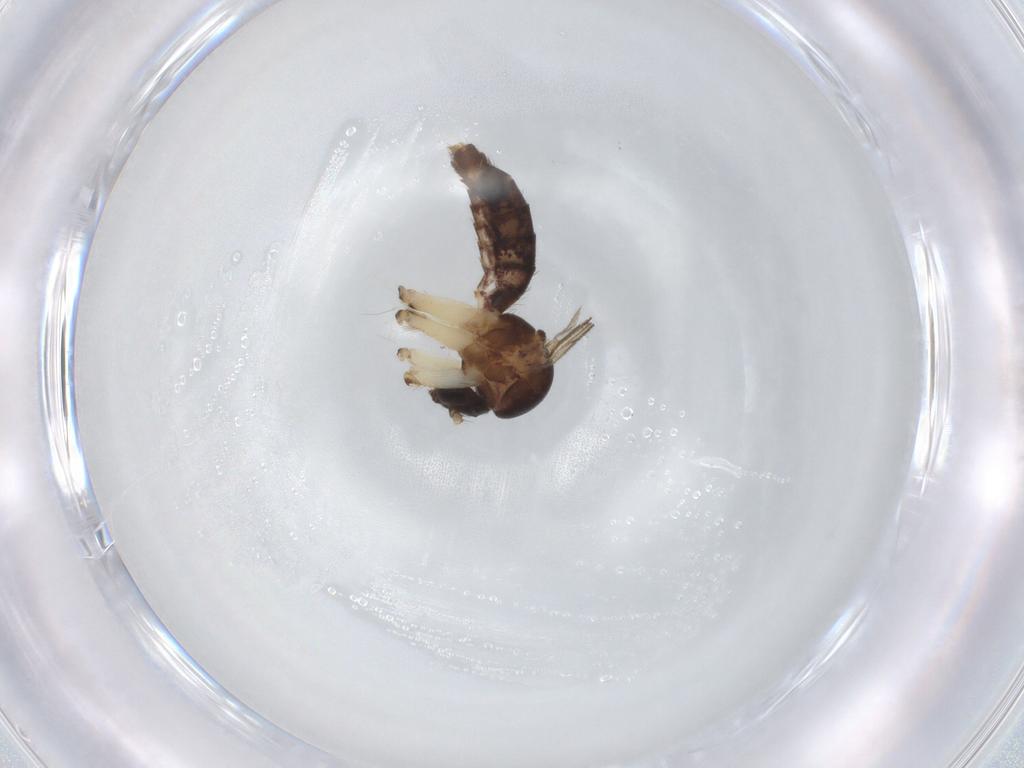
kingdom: Animalia
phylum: Arthropoda
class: Insecta
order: Diptera
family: Mycetophilidae
